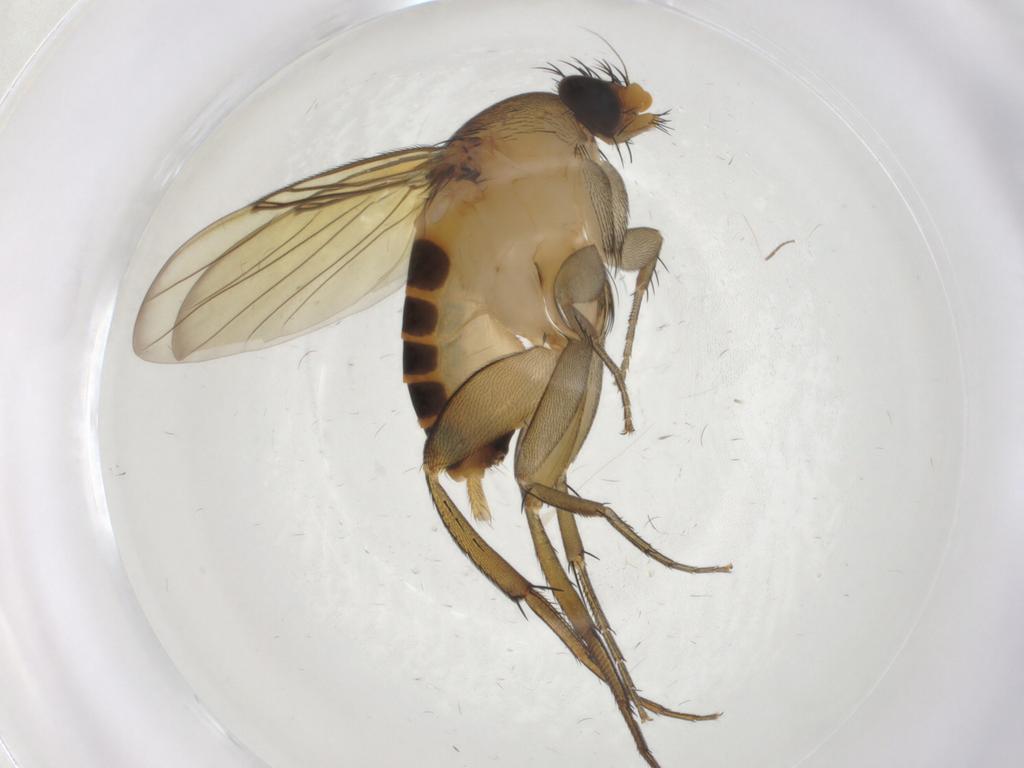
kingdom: Animalia
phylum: Arthropoda
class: Insecta
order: Diptera
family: Phoridae
